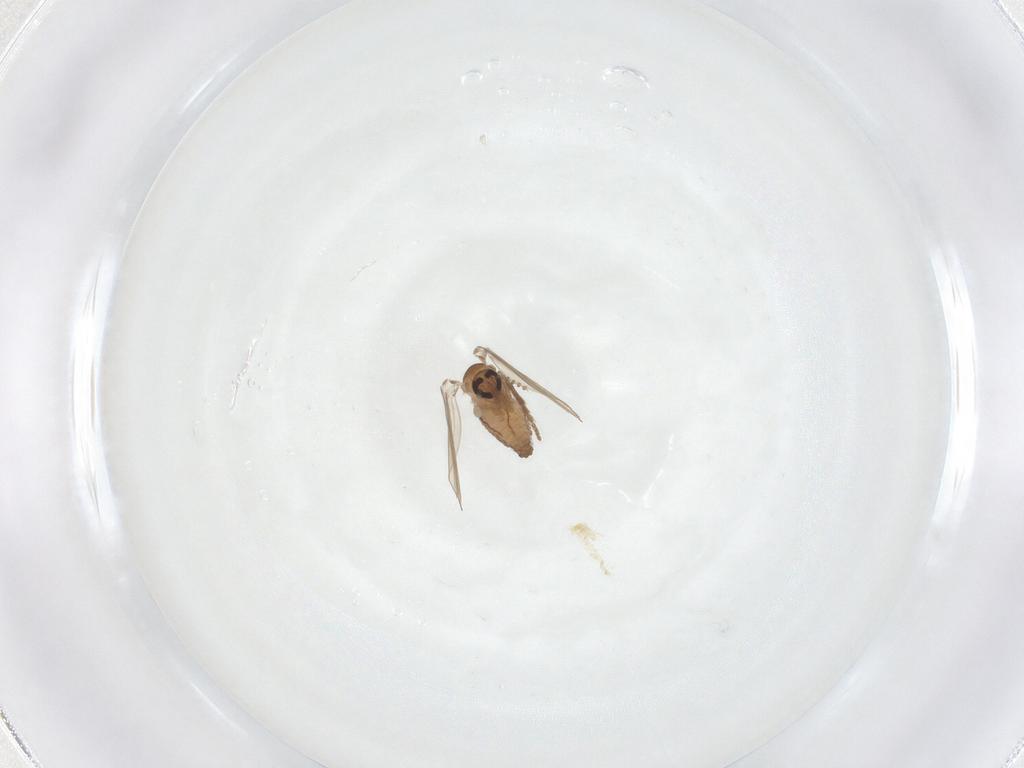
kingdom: Animalia
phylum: Arthropoda
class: Insecta
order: Diptera
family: Psychodidae
